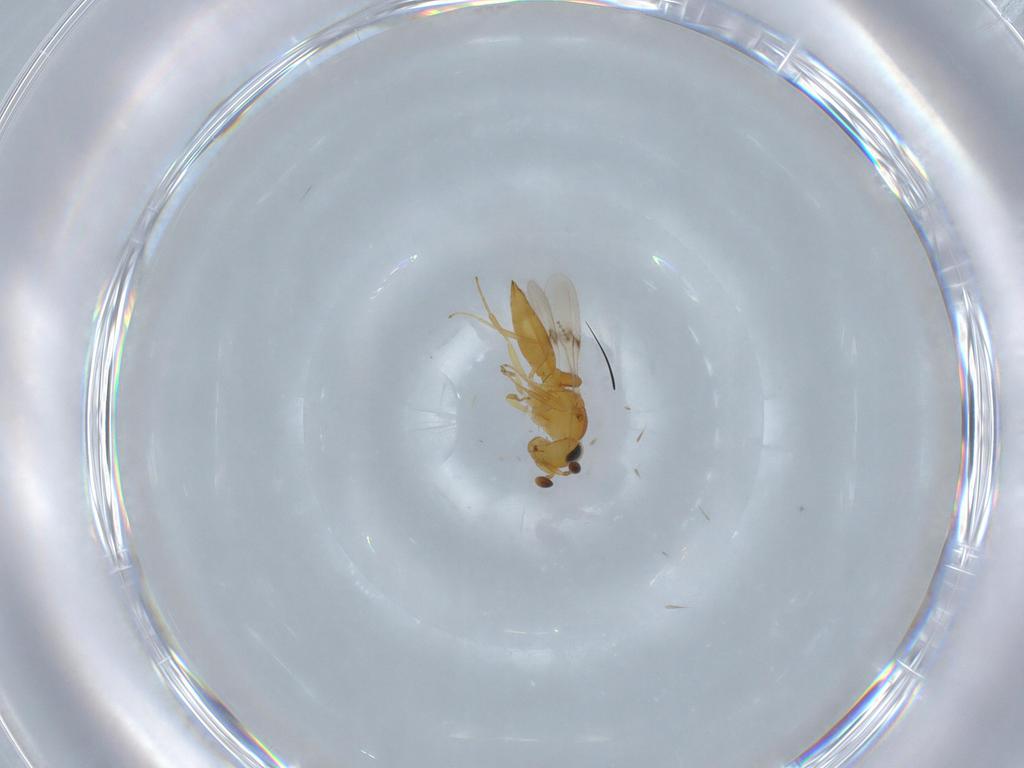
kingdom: Animalia
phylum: Arthropoda
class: Insecta
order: Hymenoptera
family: Scelionidae
